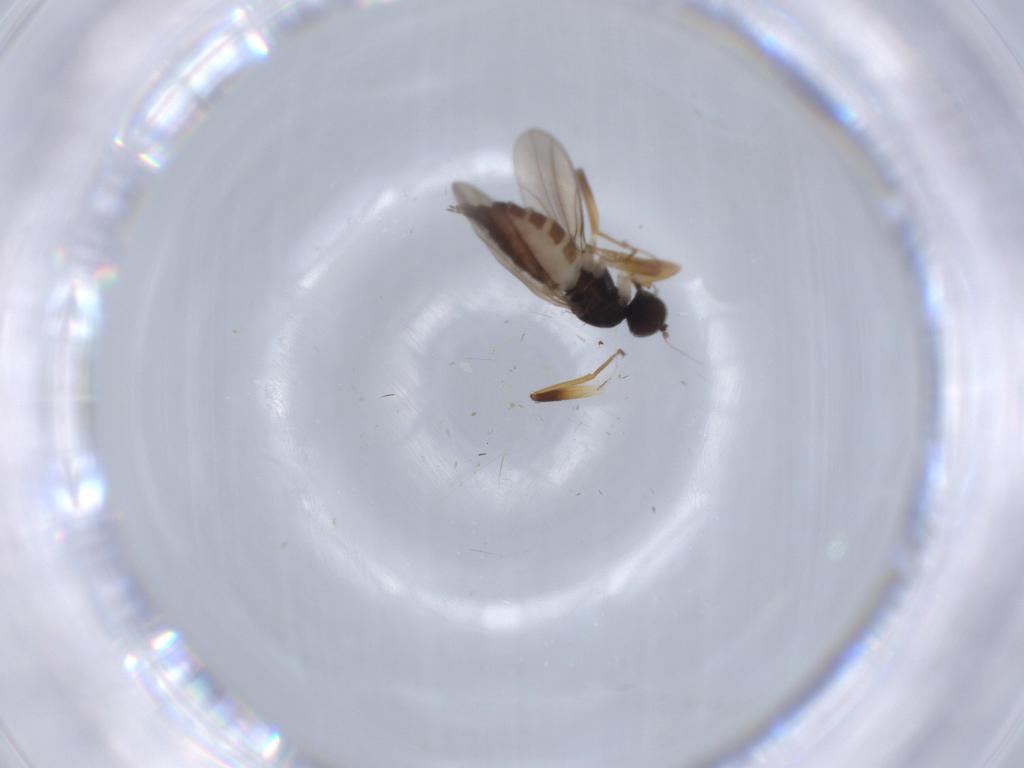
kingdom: Animalia
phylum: Arthropoda
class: Insecta
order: Diptera
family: Hybotidae
